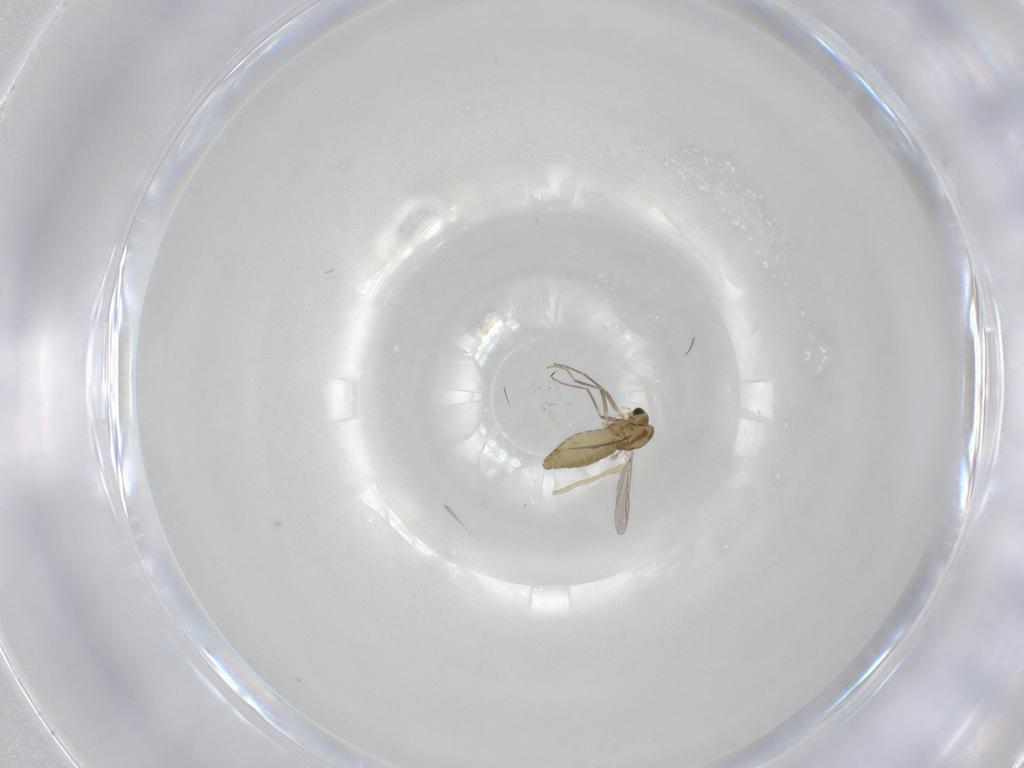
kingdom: Animalia
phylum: Arthropoda
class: Insecta
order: Diptera
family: Chironomidae
